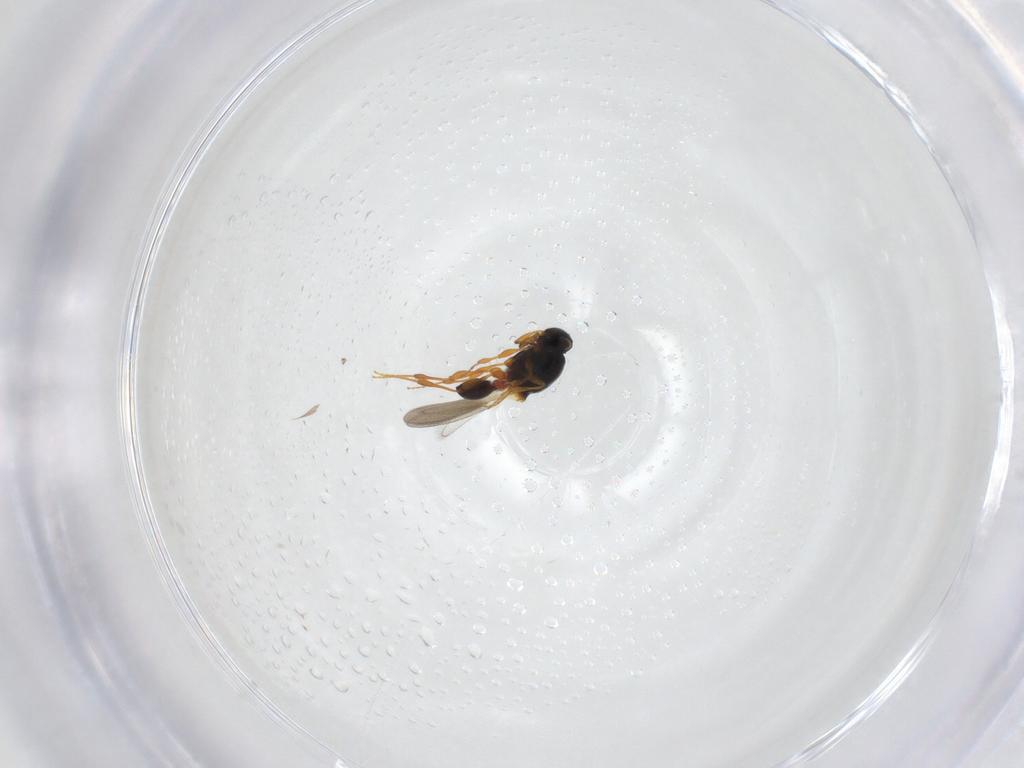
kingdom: Animalia
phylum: Arthropoda
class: Insecta
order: Hymenoptera
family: Platygastridae
